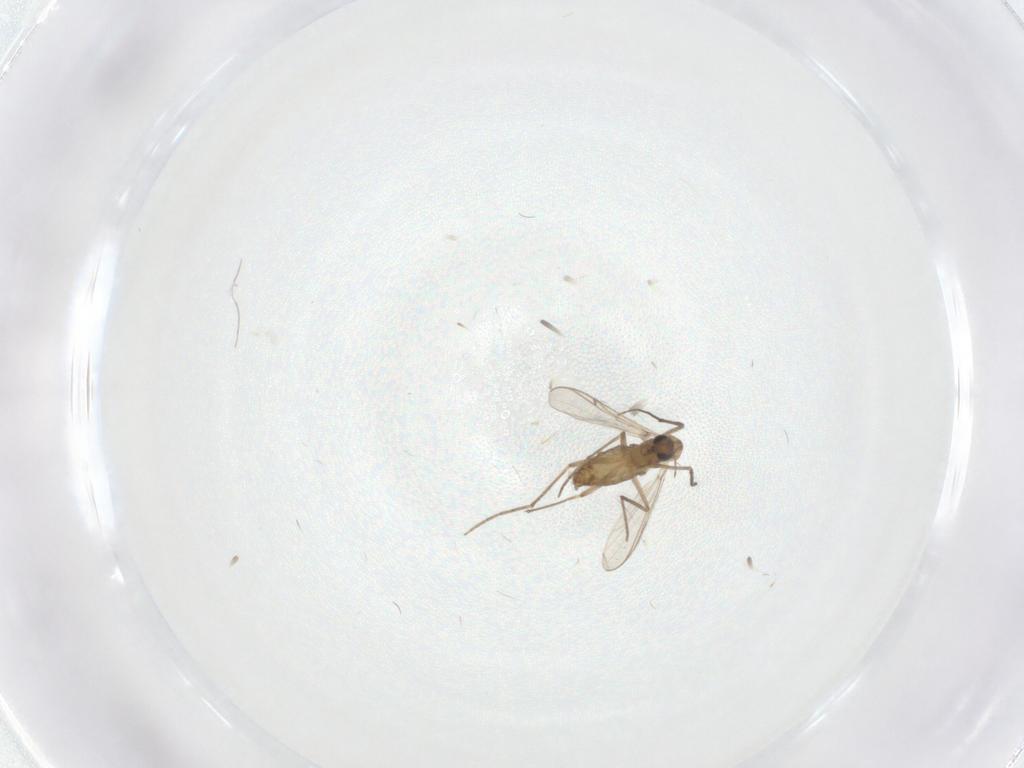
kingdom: Animalia
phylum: Arthropoda
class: Insecta
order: Diptera
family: Chironomidae
